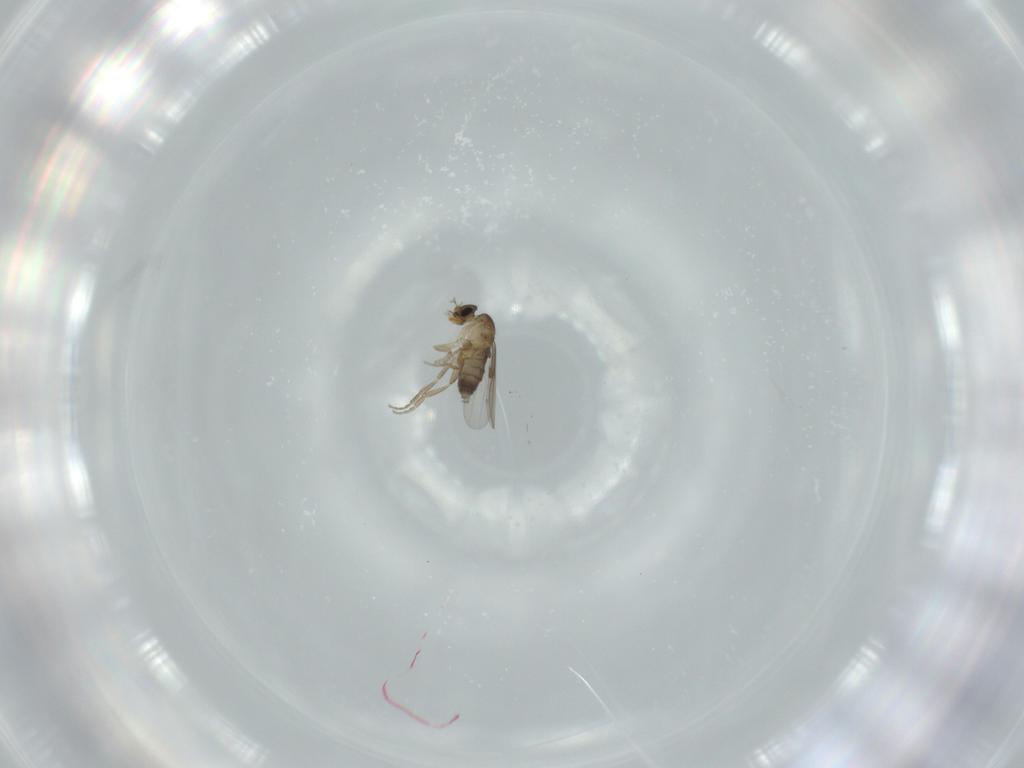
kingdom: Animalia
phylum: Arthropoda
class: Insecta
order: Diptera
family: Phoridae
